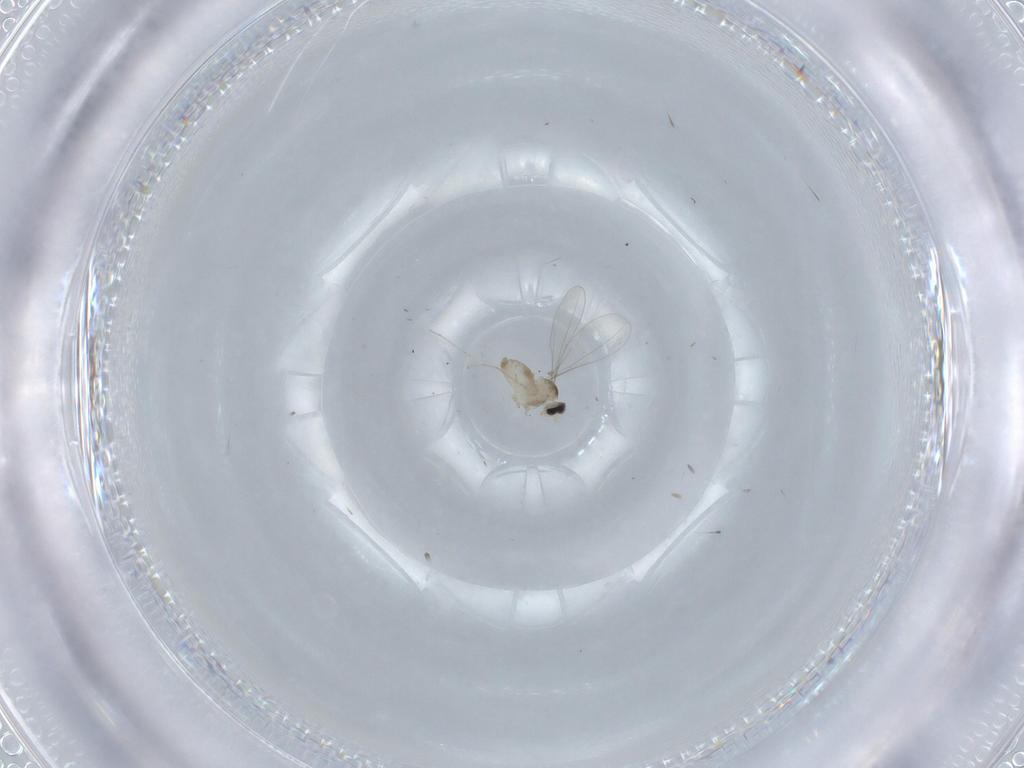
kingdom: Animalia
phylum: Arthropoda
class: Insecta
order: Diptera
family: Cecidomyiidae
